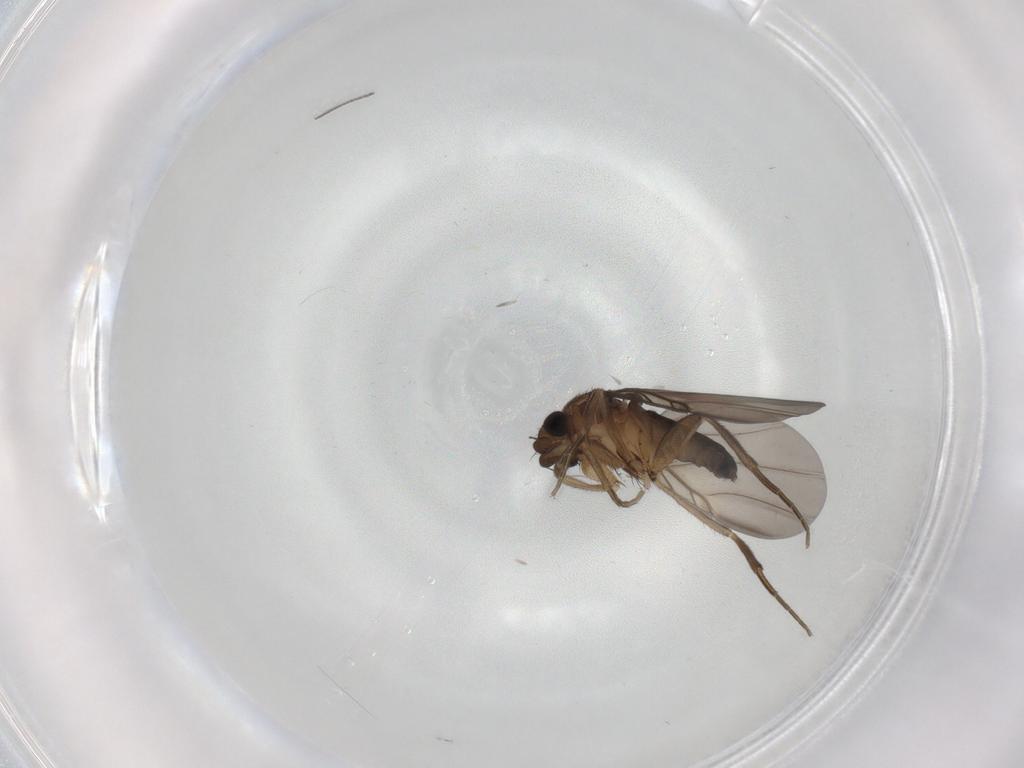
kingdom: Animalia
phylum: Arthropoda
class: Insecta
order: Diptera
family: Phoridae
